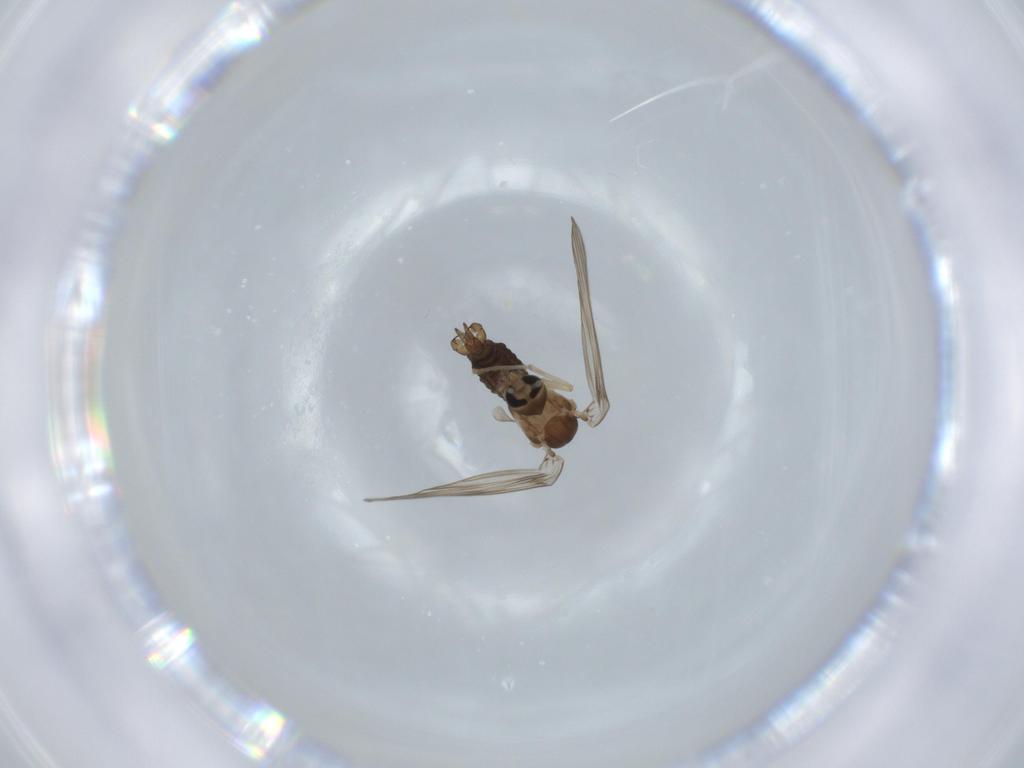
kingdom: Animalia
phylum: Arthropoda
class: Insecta
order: Diptera
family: Psychodidae
